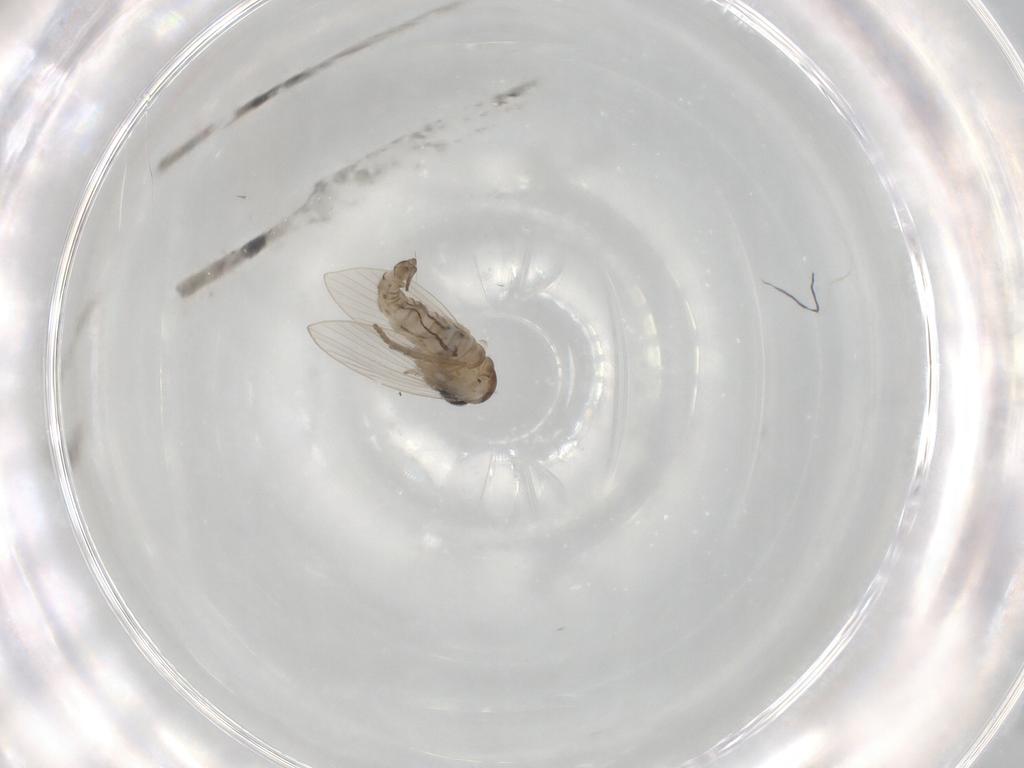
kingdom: Animalia
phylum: Arthropoda
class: Insecta
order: Diptera
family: Psychodidae
